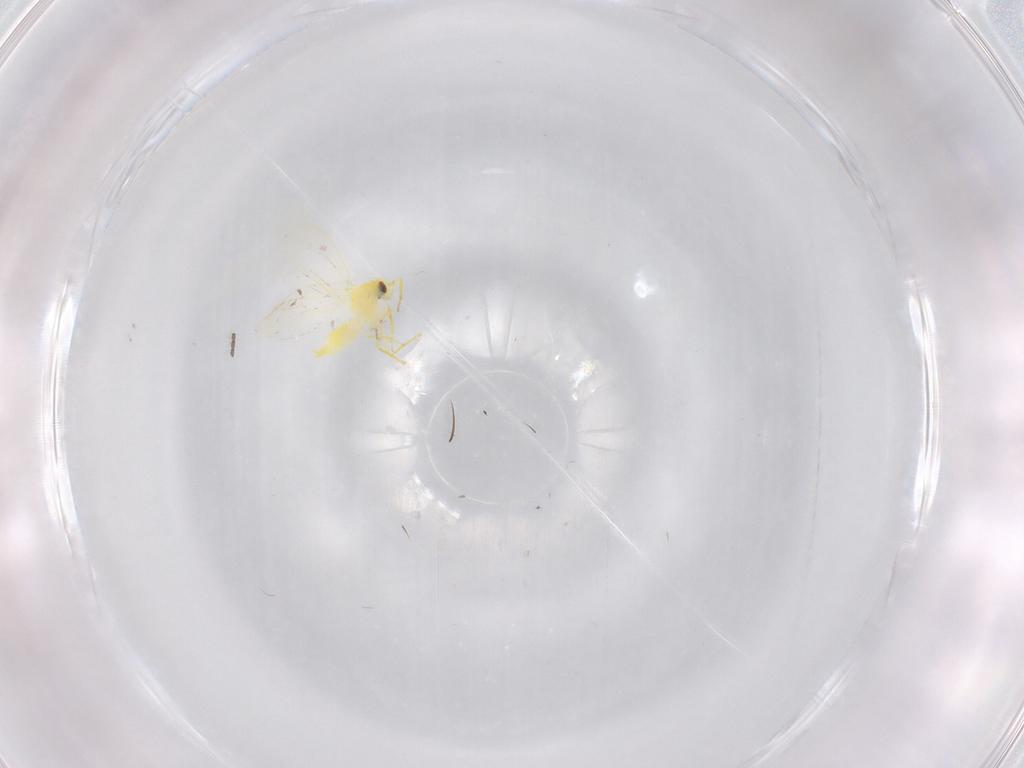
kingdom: Animalia
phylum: Arthropoda
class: Insecta
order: Hemiptera
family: Aleyrodidae
